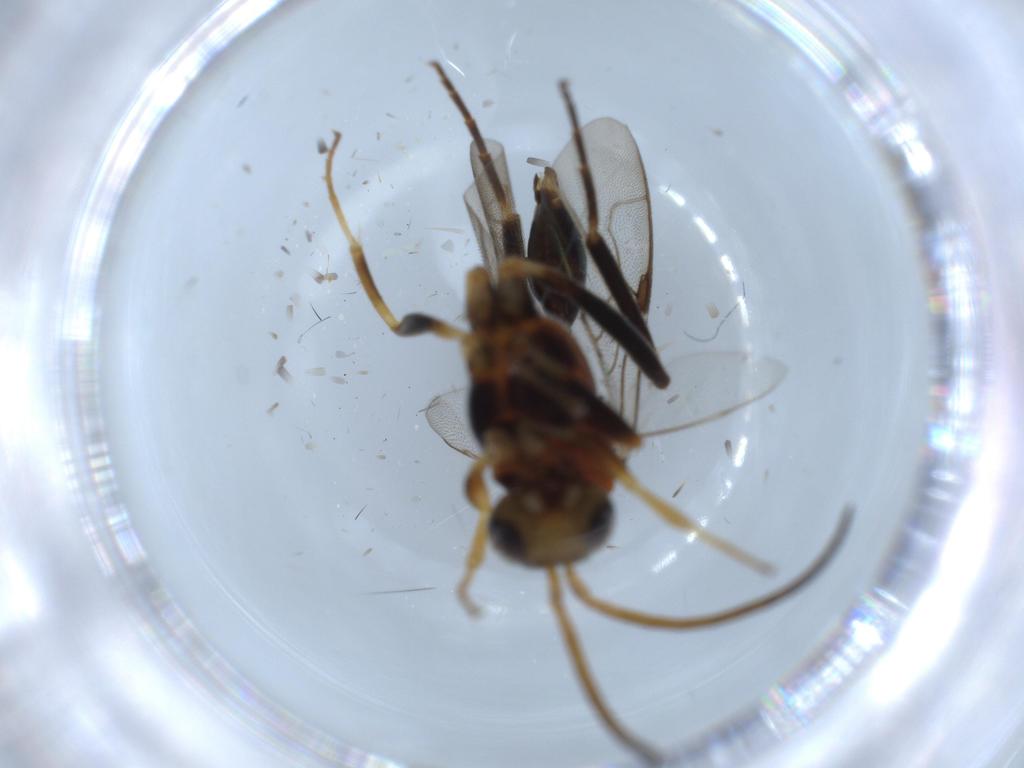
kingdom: Animalia
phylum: Arthropoda
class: Insecta
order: Hymenoptera
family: Evaniidae
